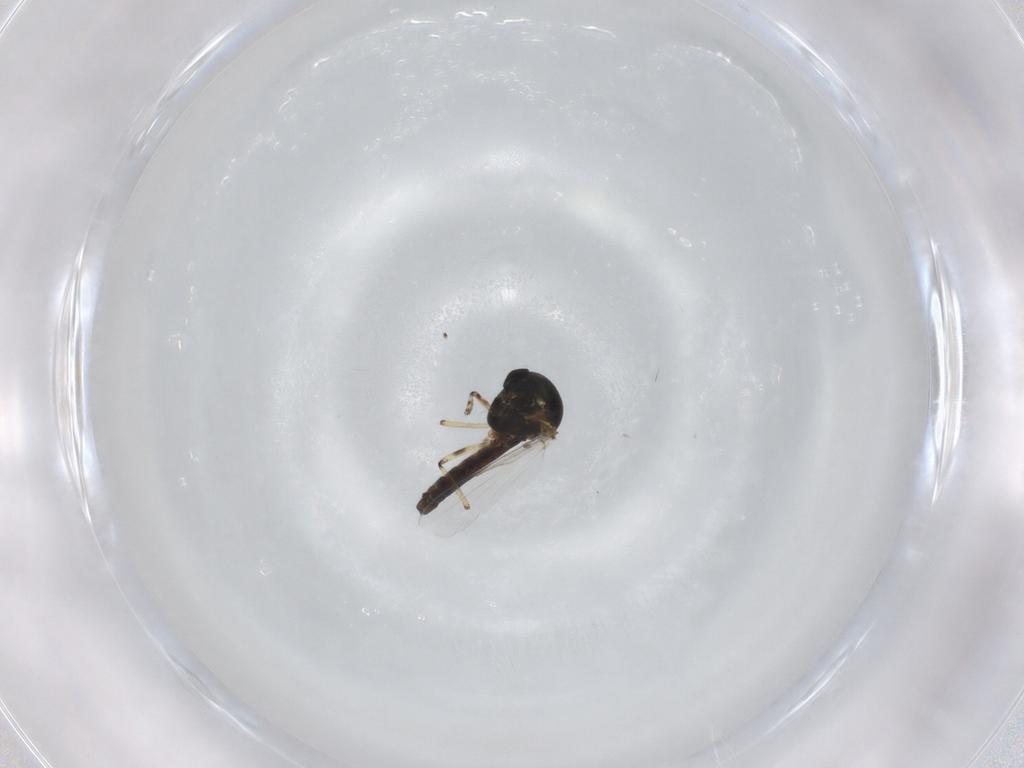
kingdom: Animalia
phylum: Arthropoda
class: Insecta
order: Diptera
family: Ceratopogonidae
